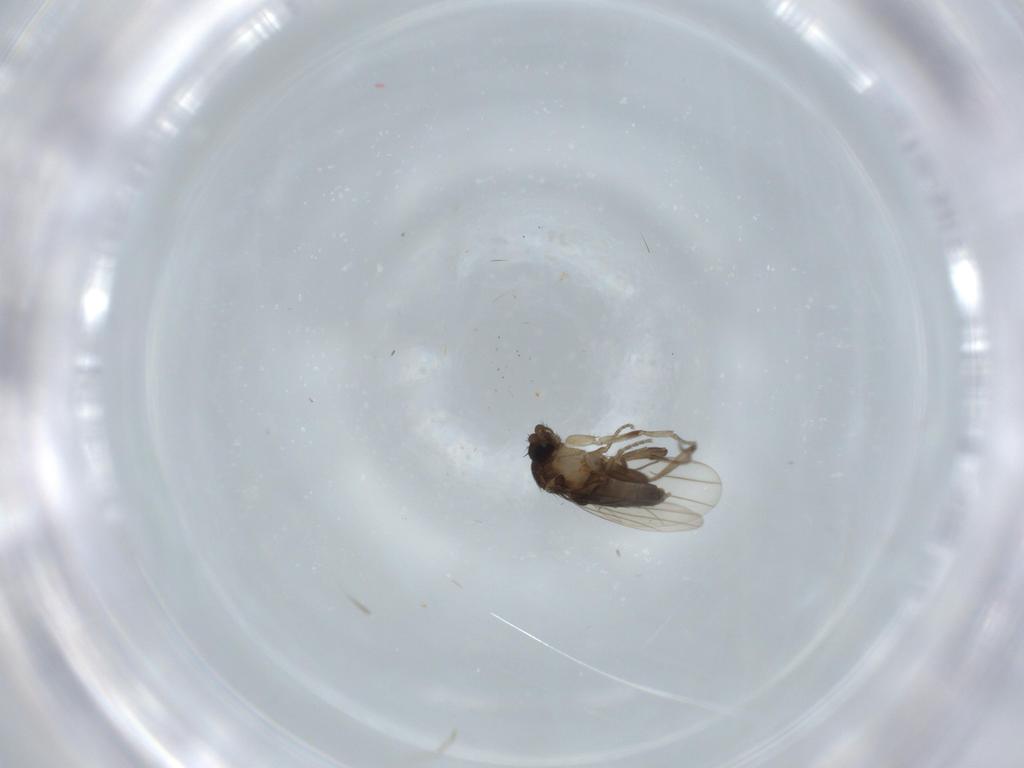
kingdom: Animalia
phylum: Arthropoda
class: Insecta
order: Diptera
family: Phoridae
